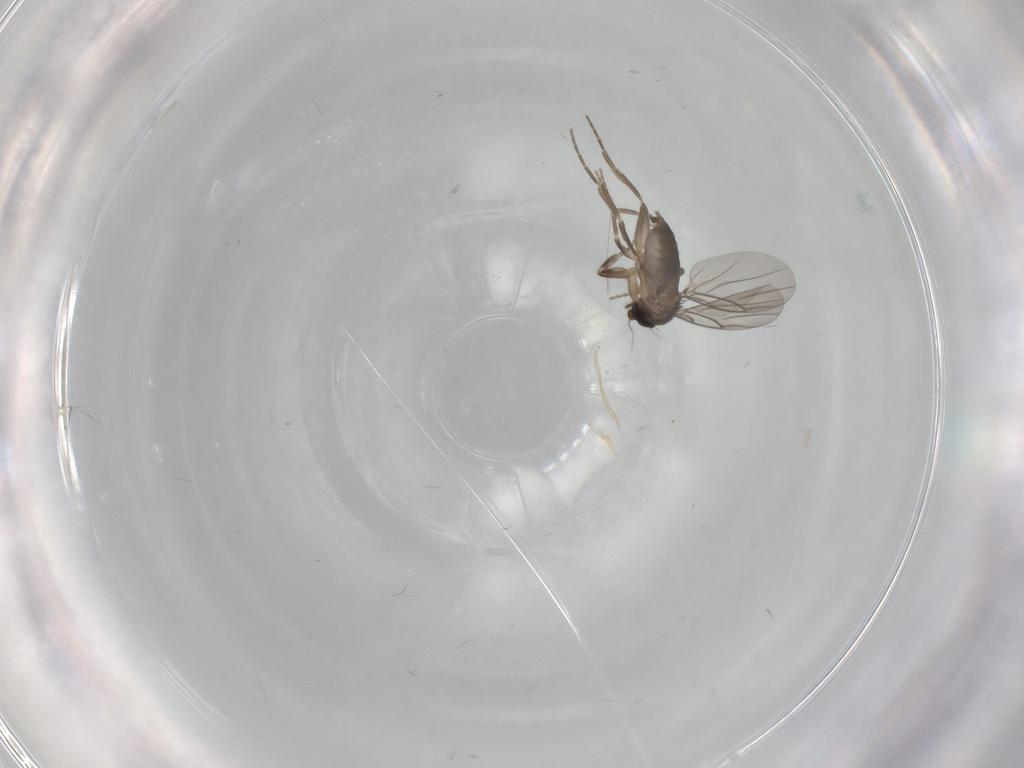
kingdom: Animalia
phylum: Arthropoda
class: Insecta
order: Diptera
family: Phoridae
